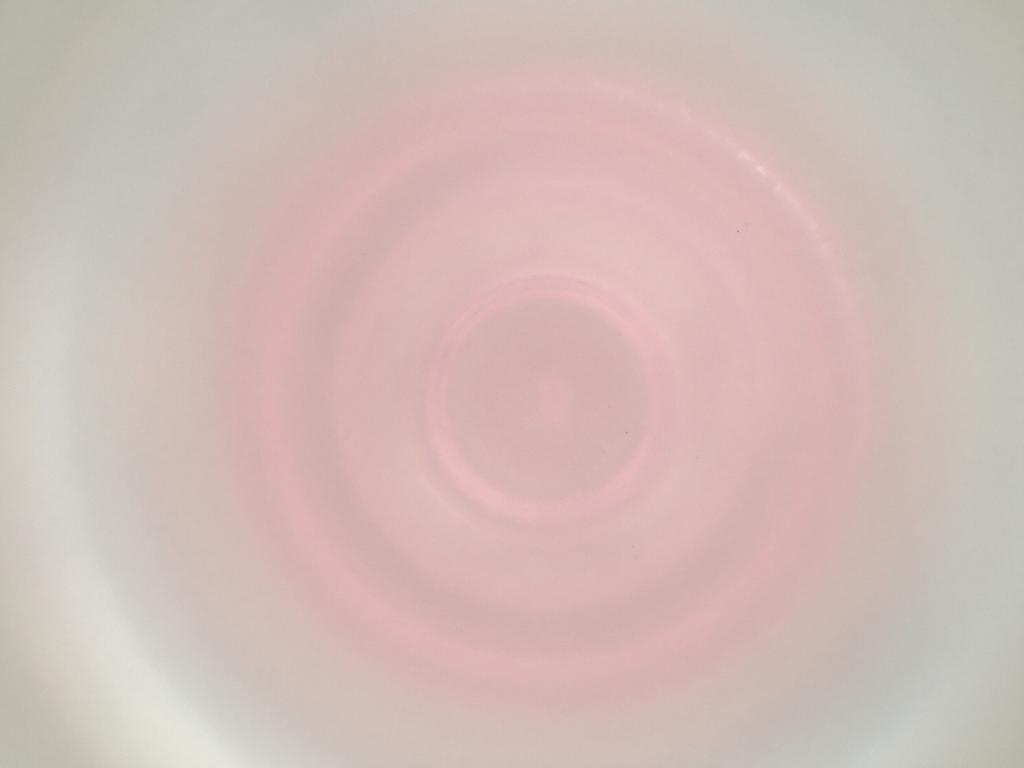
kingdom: Animalia
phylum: Arthropoda
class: Insecta
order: Diptera
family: Cecidomyiidae
